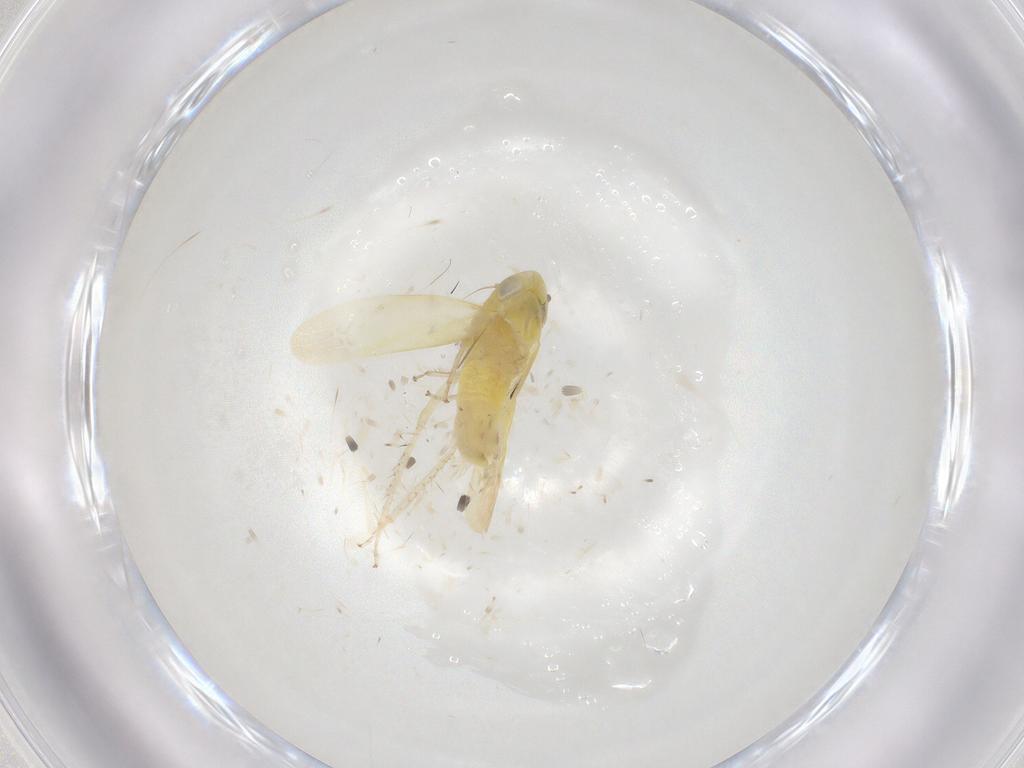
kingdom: Animalia
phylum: Arthropoda
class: Insecta
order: Hemiptera
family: Cicadellidae
